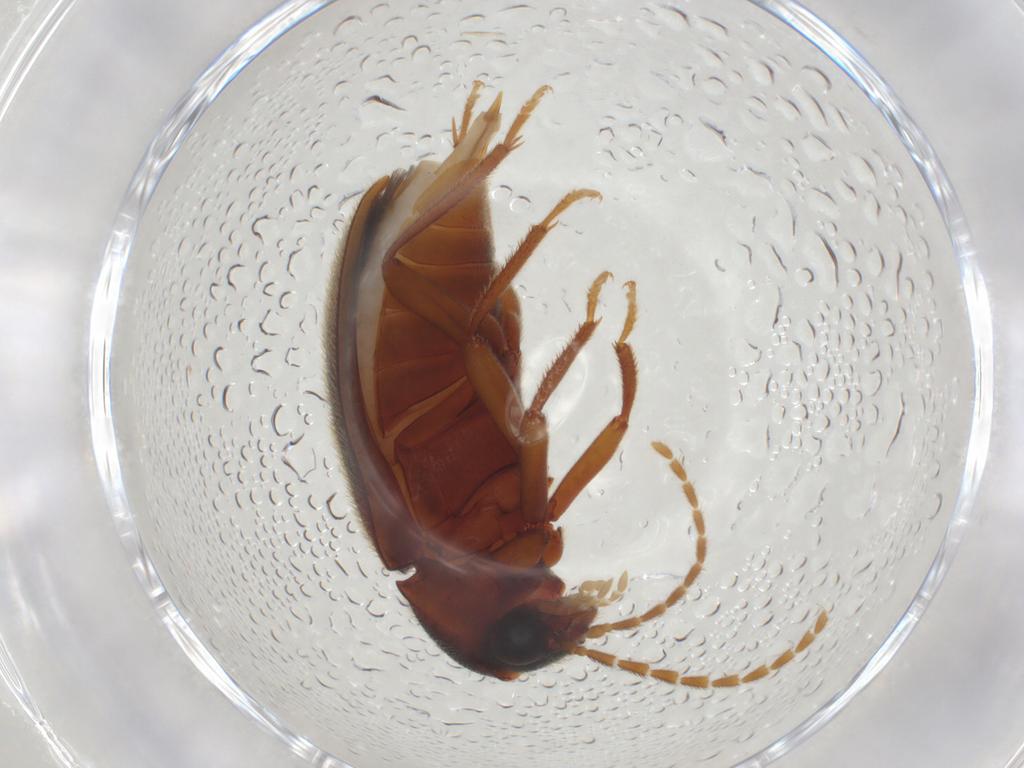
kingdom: Animalia
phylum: Arthropoda
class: Insecta
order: Coleoptera
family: Ptilodactylidae
